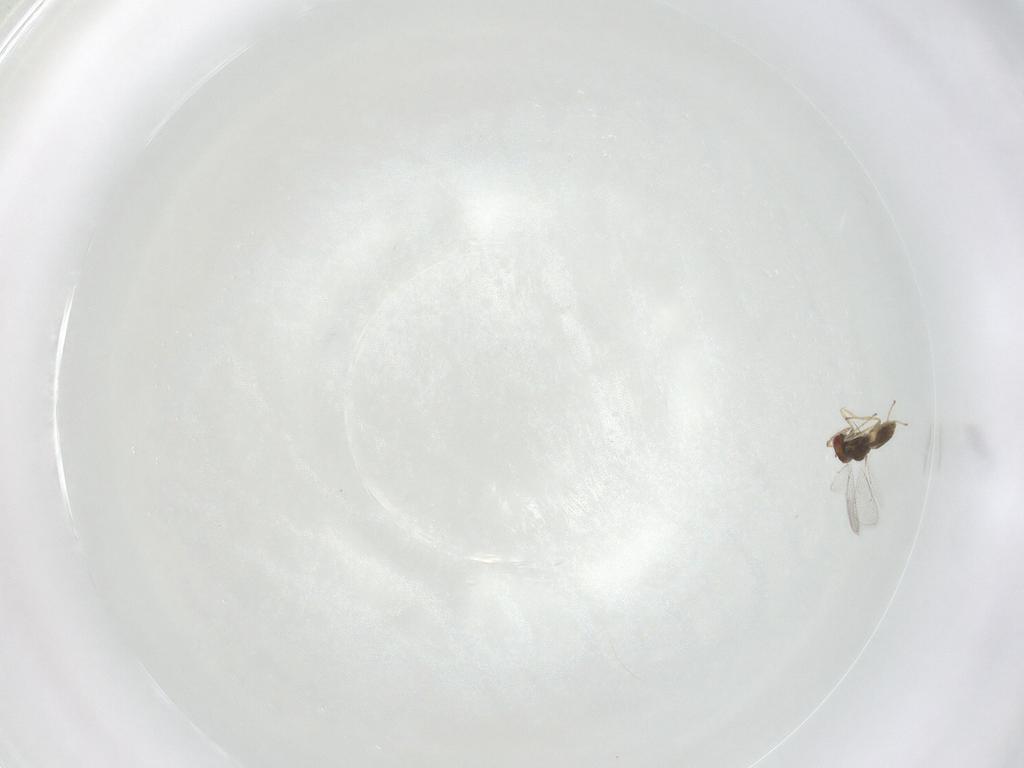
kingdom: Animalia
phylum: Arthropoda
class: Insecta
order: Hymenoptera
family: Eulophidae
